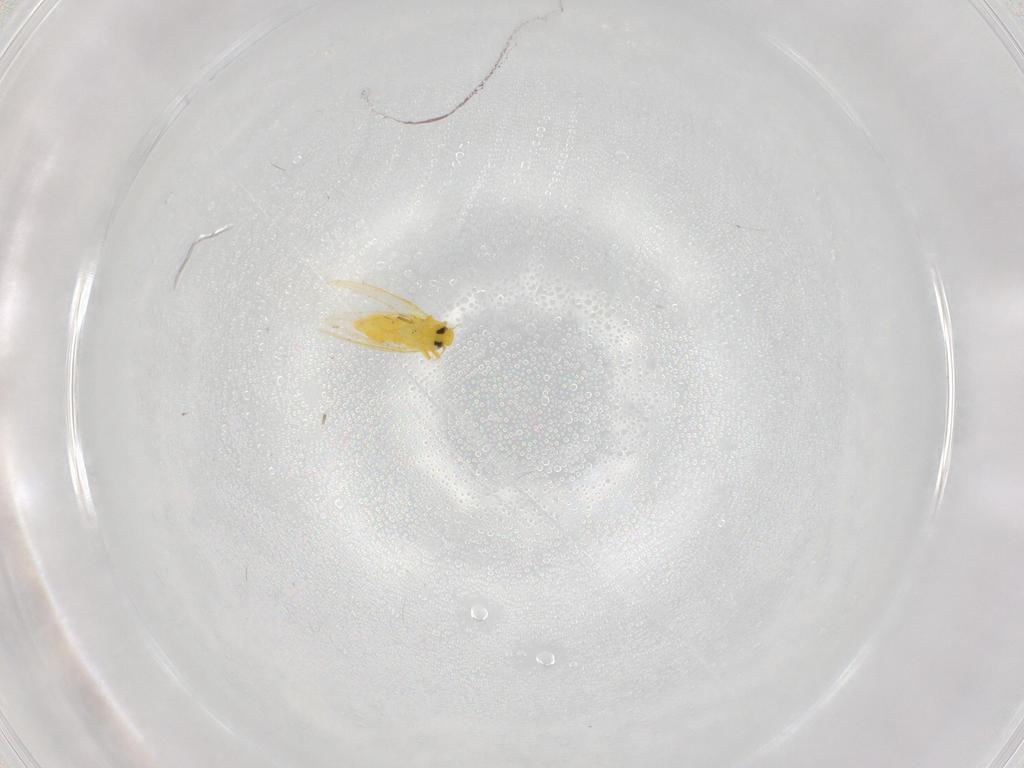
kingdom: Animalia
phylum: Arthropoda
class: Insecta
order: Hemiptera
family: Aleyrodidae
